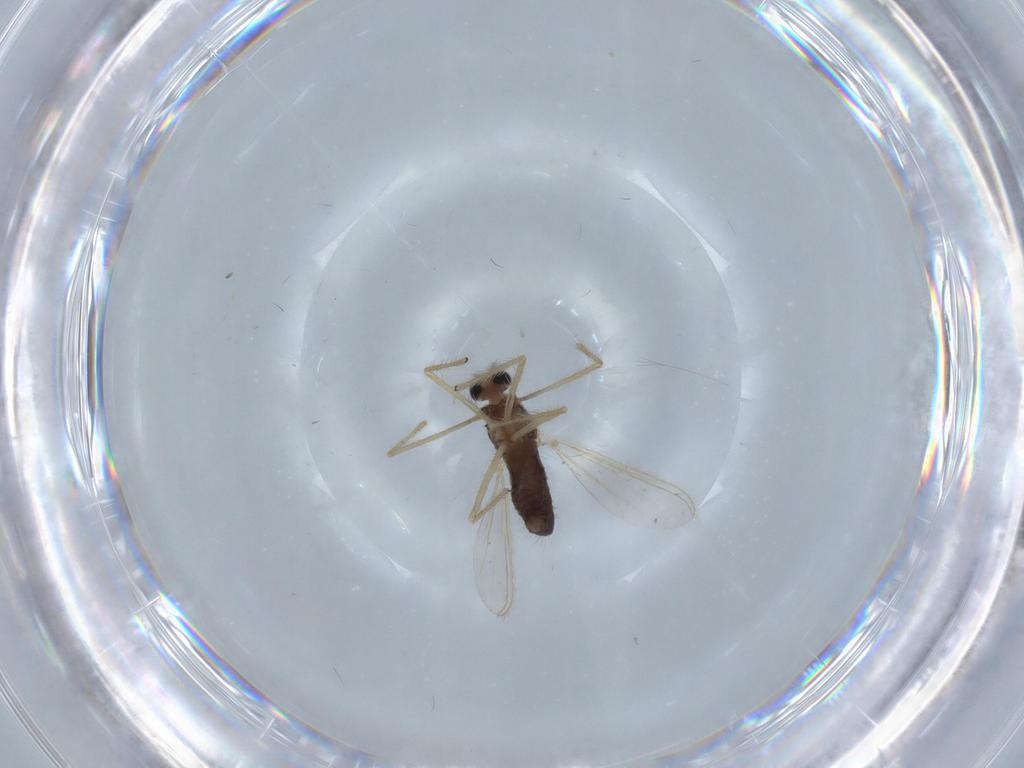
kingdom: Animalia
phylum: Arthropoda
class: Insecta
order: Diptera
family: Chironomidae
